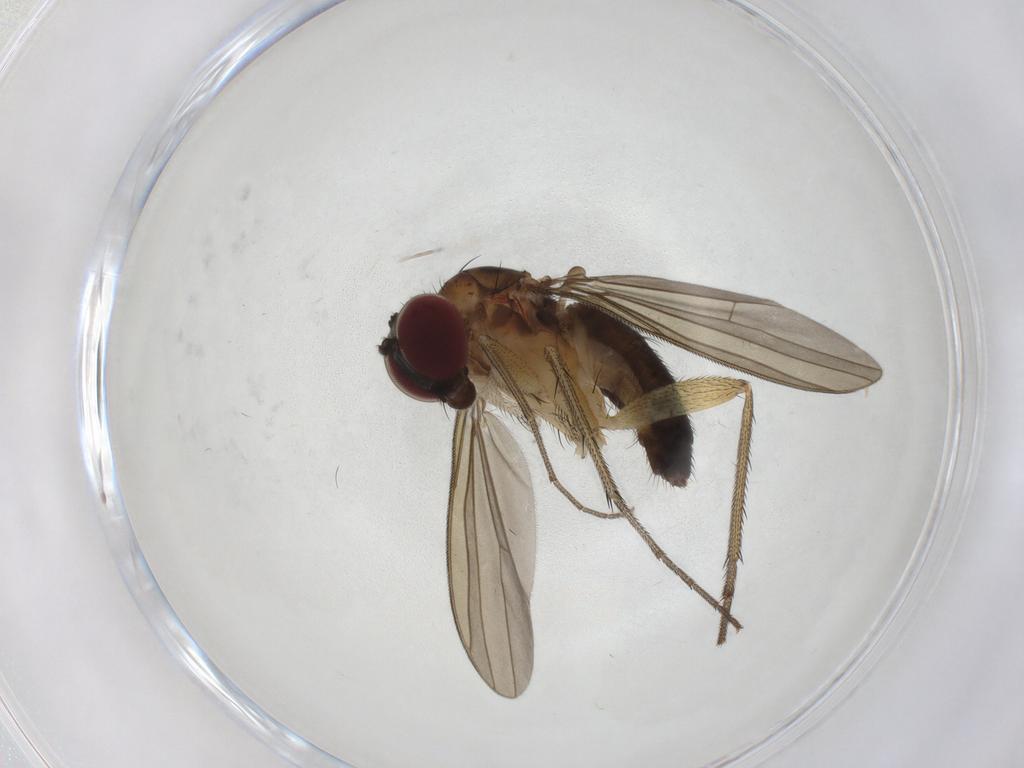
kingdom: Animalia
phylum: Arthropoda
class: Insecta
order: Diptera
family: Dolichopodidae
